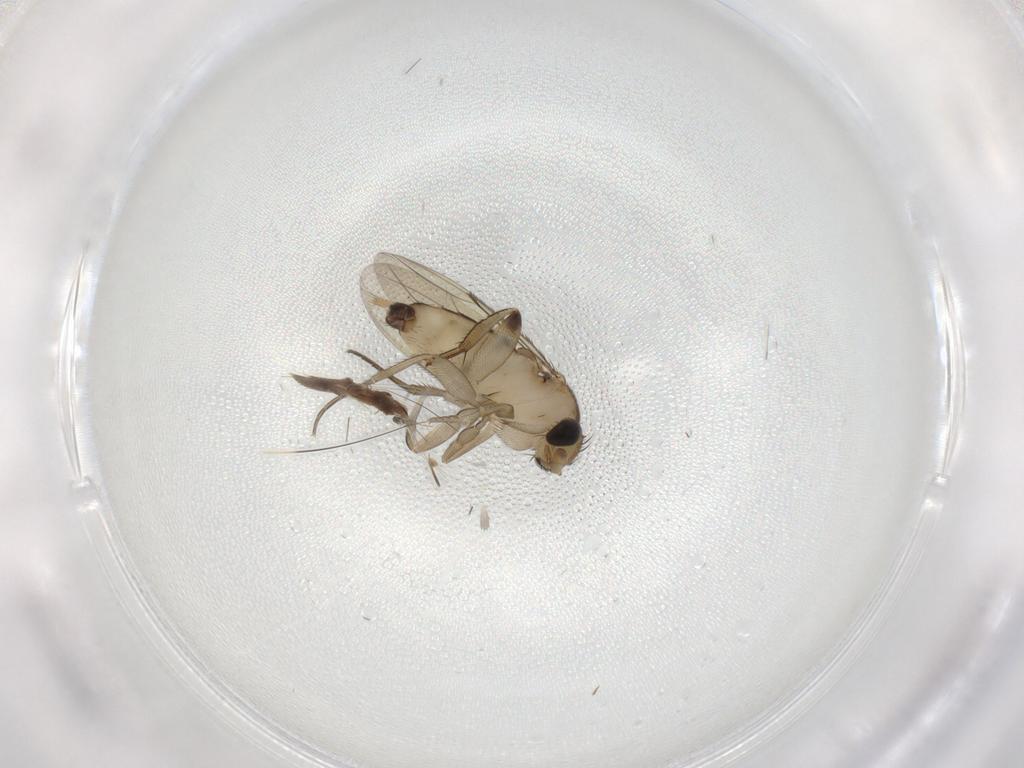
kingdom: Animalia
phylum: Arthropoda
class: Insecta
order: Diptera
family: Phoridae
